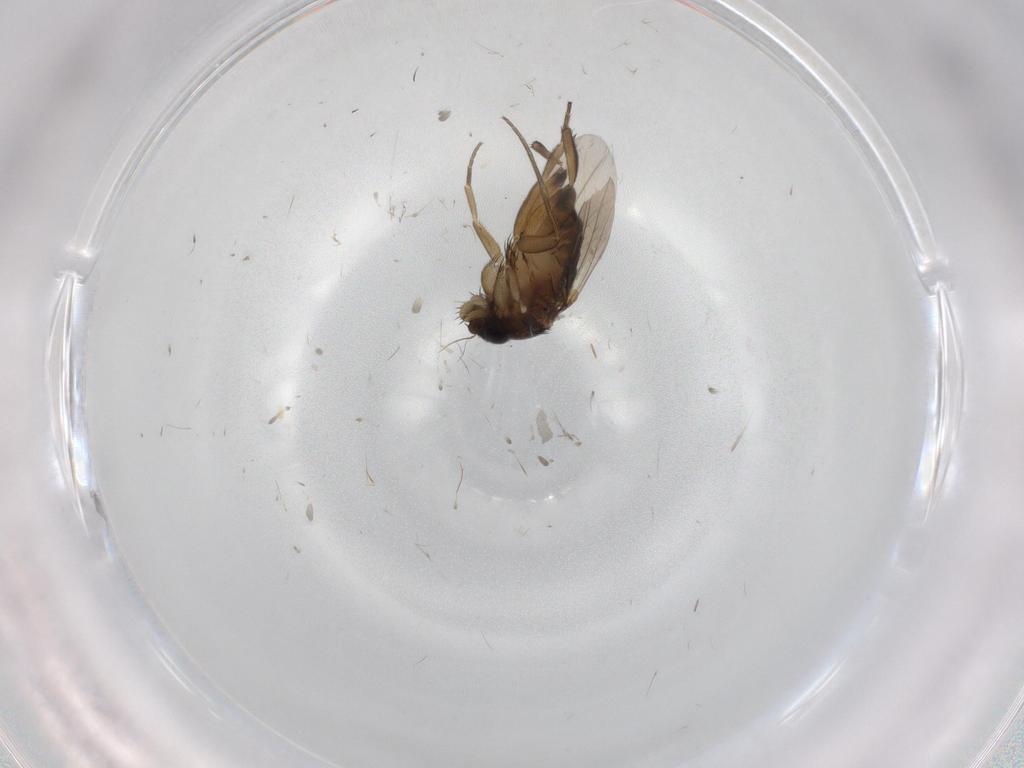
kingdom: Animalia
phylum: Arthropoda
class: Insecta
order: Diptera
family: Phoridae
